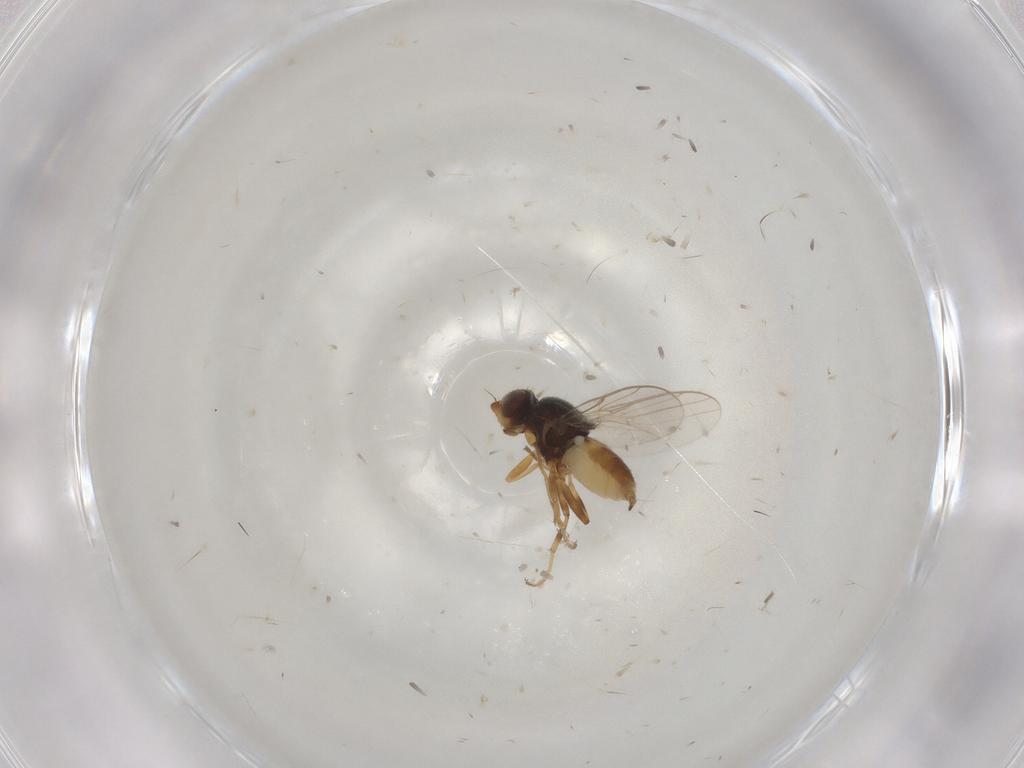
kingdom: Animalia
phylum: Arthropoda
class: Insecta
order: Diptera
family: Chloropidae
